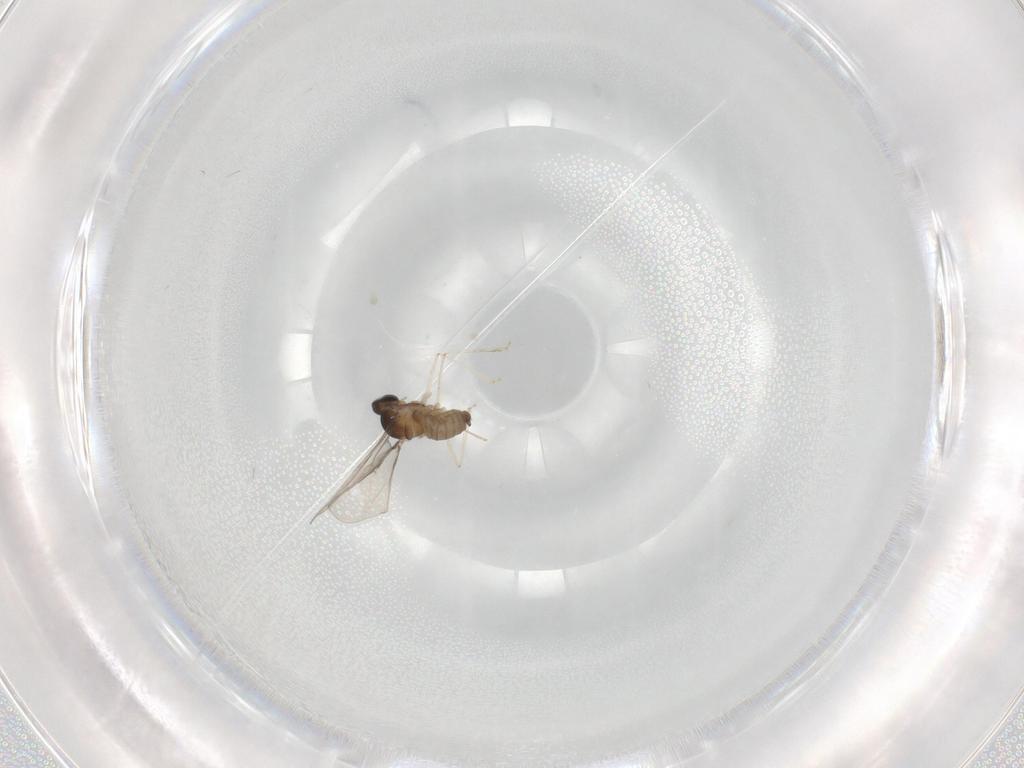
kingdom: Animalia
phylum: Arthropoda
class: Insecta
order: Diptera
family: Cecidomyiidae
